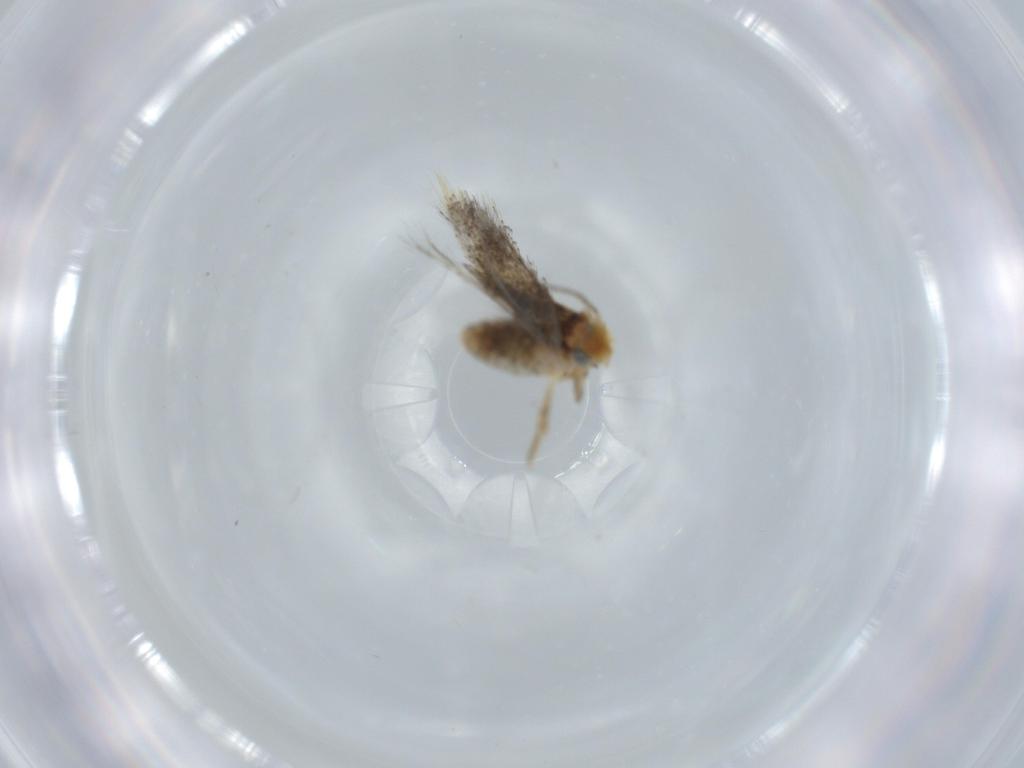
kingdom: Animalia
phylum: Arthropoda
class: Insecta
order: Lepidoptera
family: Nepticulidae
